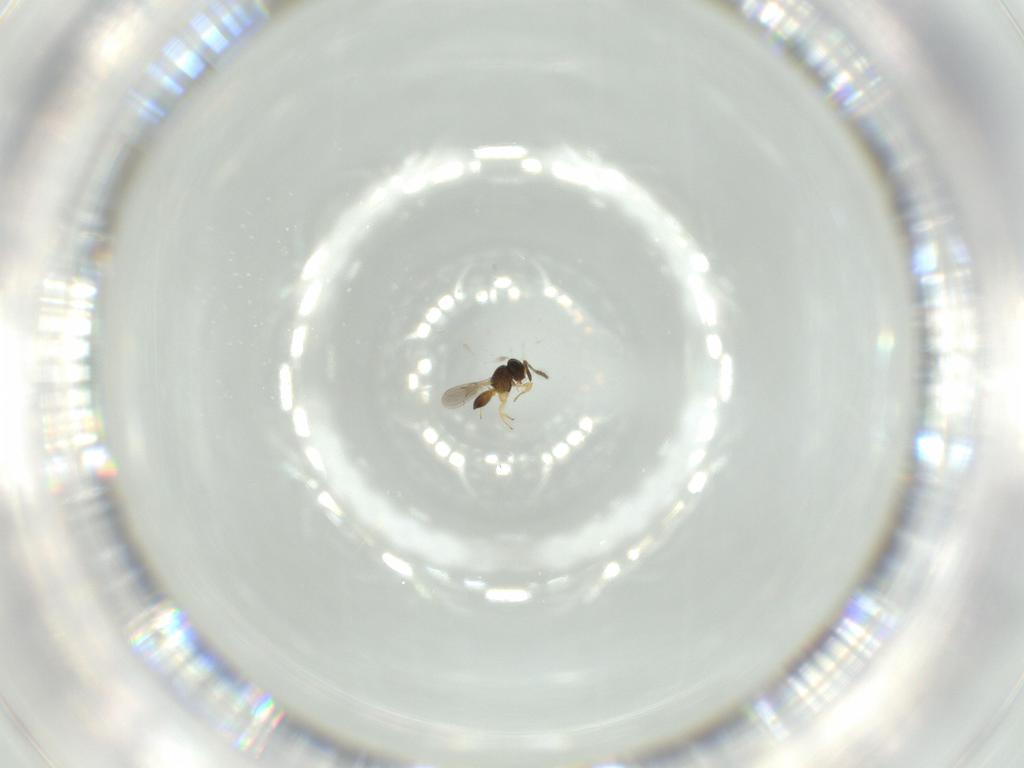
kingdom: Animalia
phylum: Arthropoda
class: Insecta
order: Hymenoptera
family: Scelionidae
